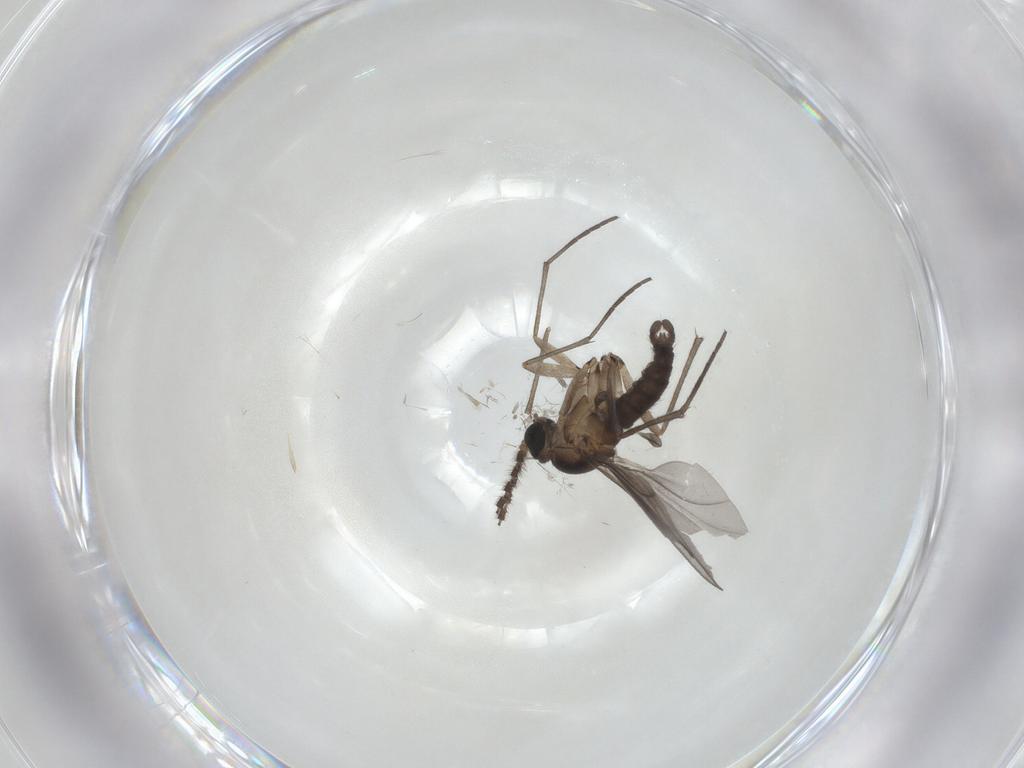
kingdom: Animalia
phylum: Arthropoda
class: Insecta
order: Diptera
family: Sciaridae
